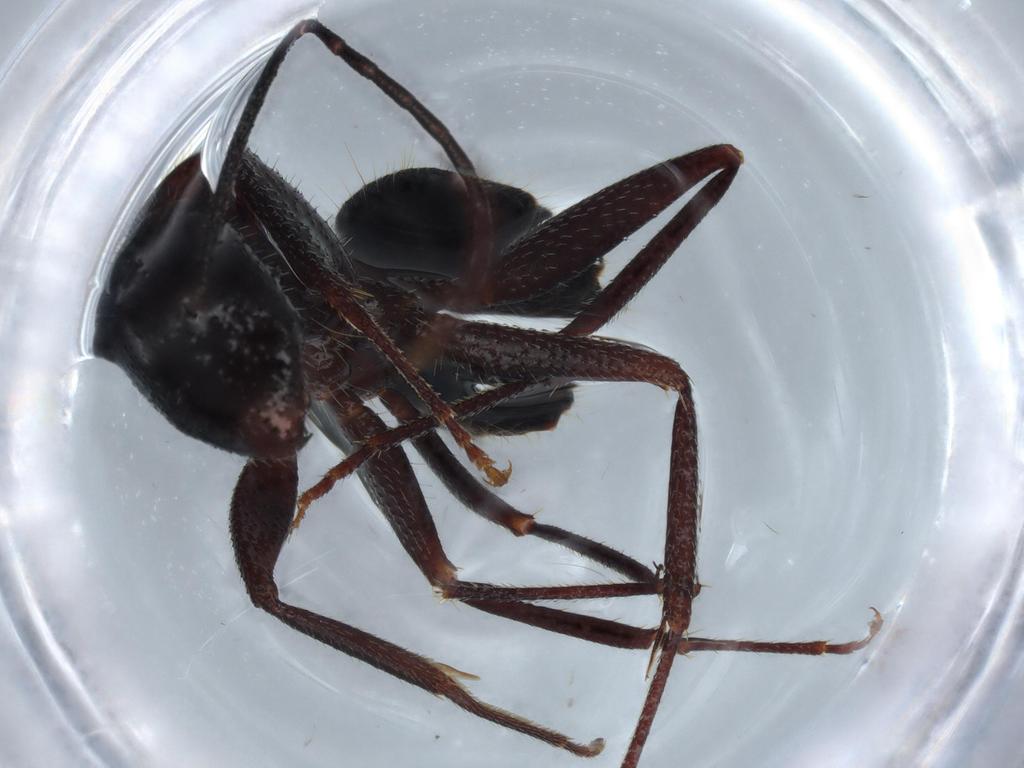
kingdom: Animalia
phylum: Arthropoda
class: Insecta
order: Hymenoptera
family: Formicidae
